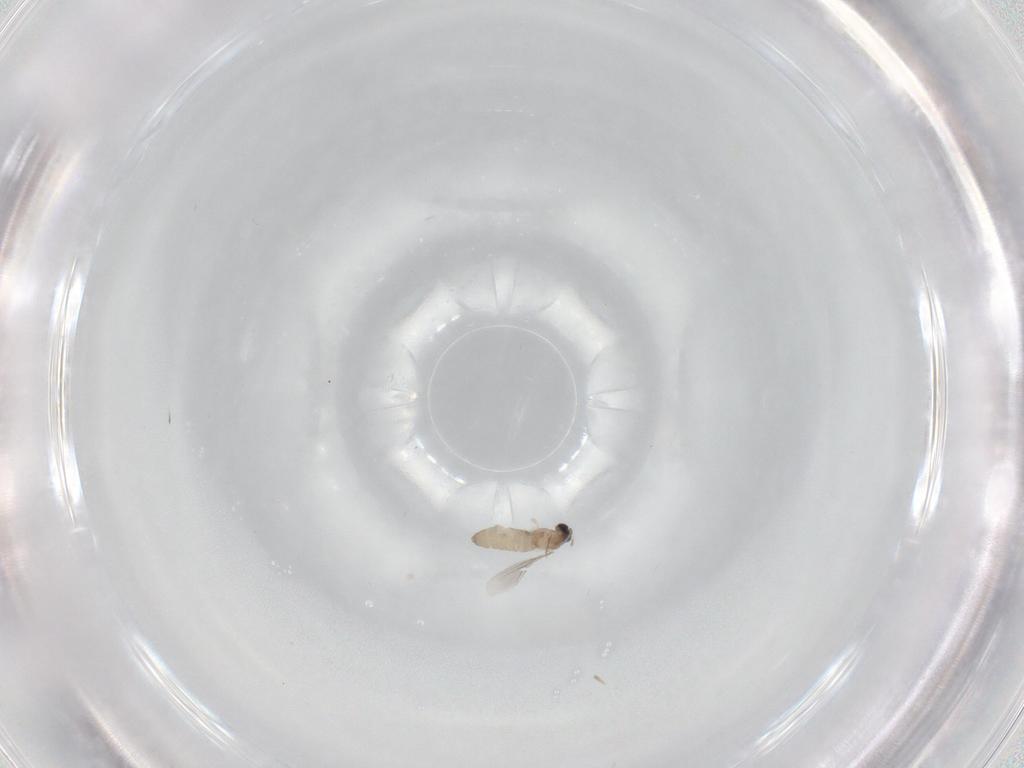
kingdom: Animalia
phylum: Arthropoda
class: Insecta
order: Diptera
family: Cecidomyiidae
